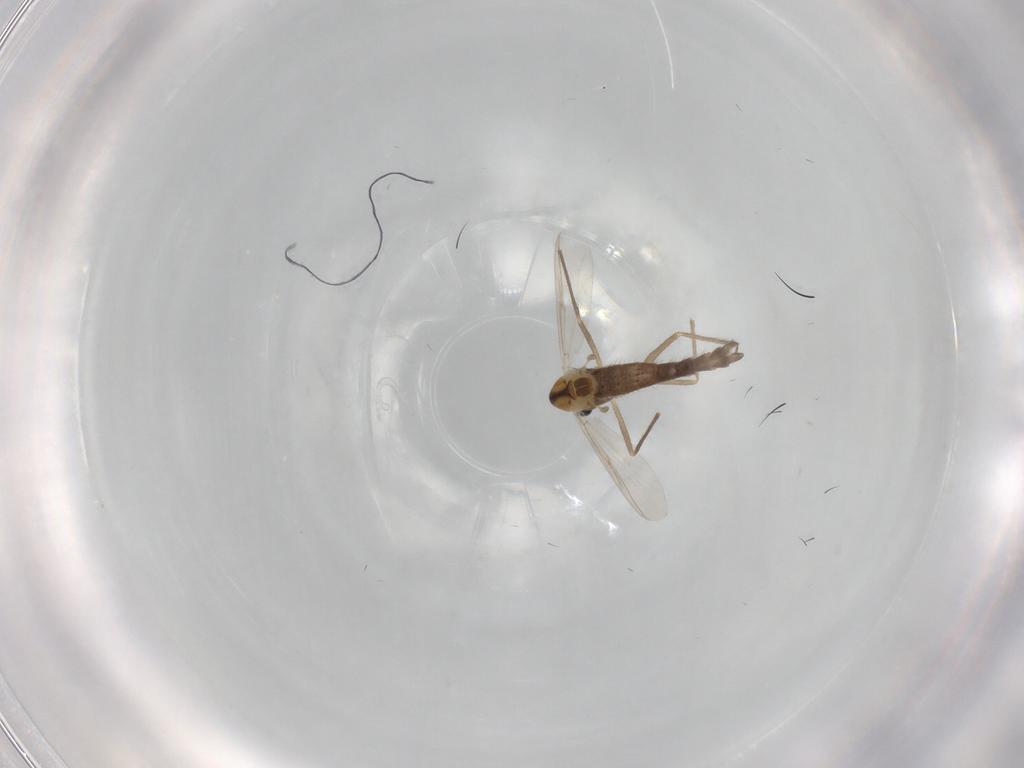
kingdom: Animalia
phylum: Arthropoda
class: Insecta
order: Diptera
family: Chironomidae
